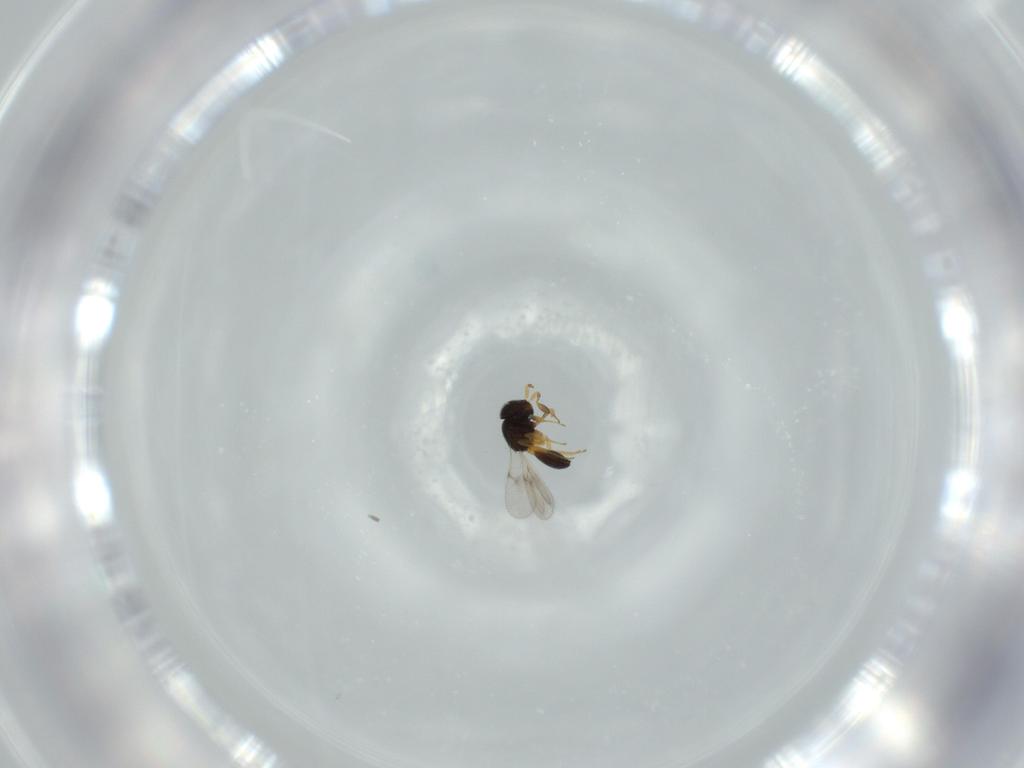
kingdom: Animalia
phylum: Arthropoda
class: Insecta
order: Hymenoptera
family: Scelionidae
